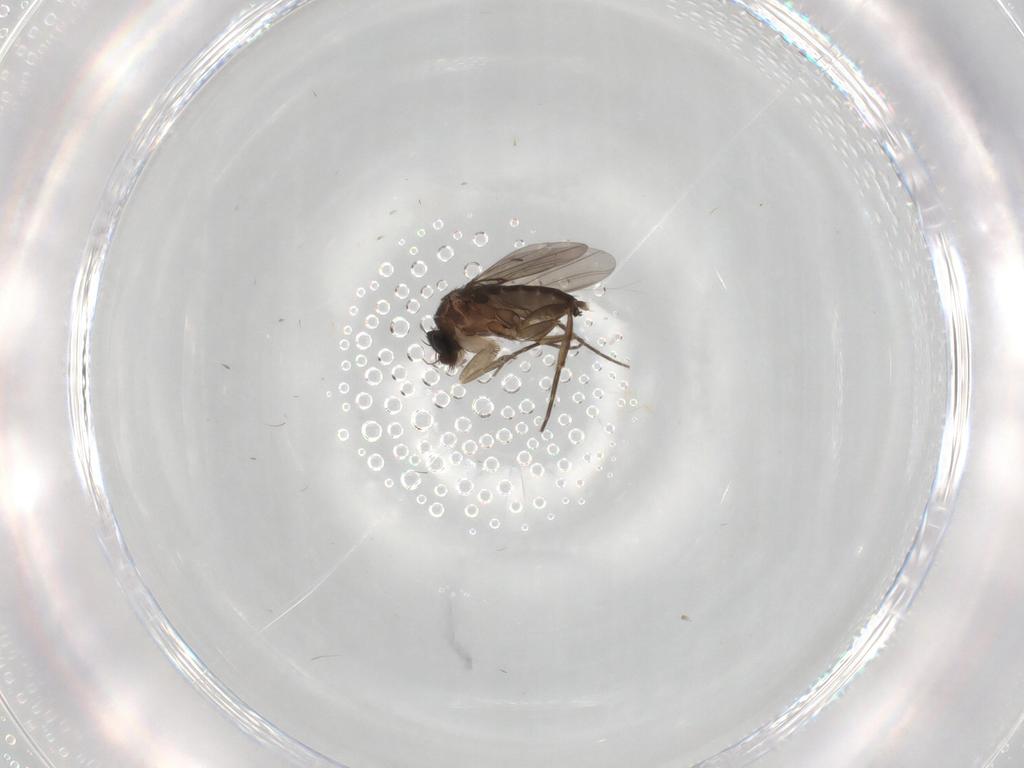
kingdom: Animalia
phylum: Arthropoda
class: Insecta
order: Diptera
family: Phoridae
